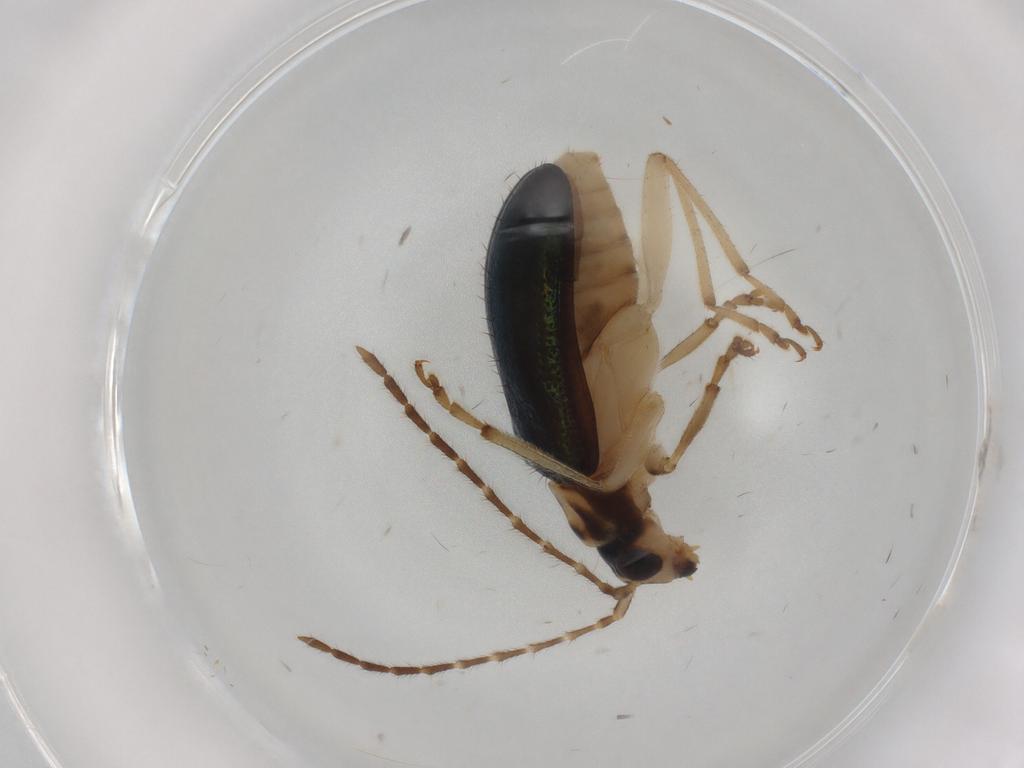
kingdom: Animalia
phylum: Arthropoda
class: Insecta
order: Coleoptera
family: Chrysomelidae
